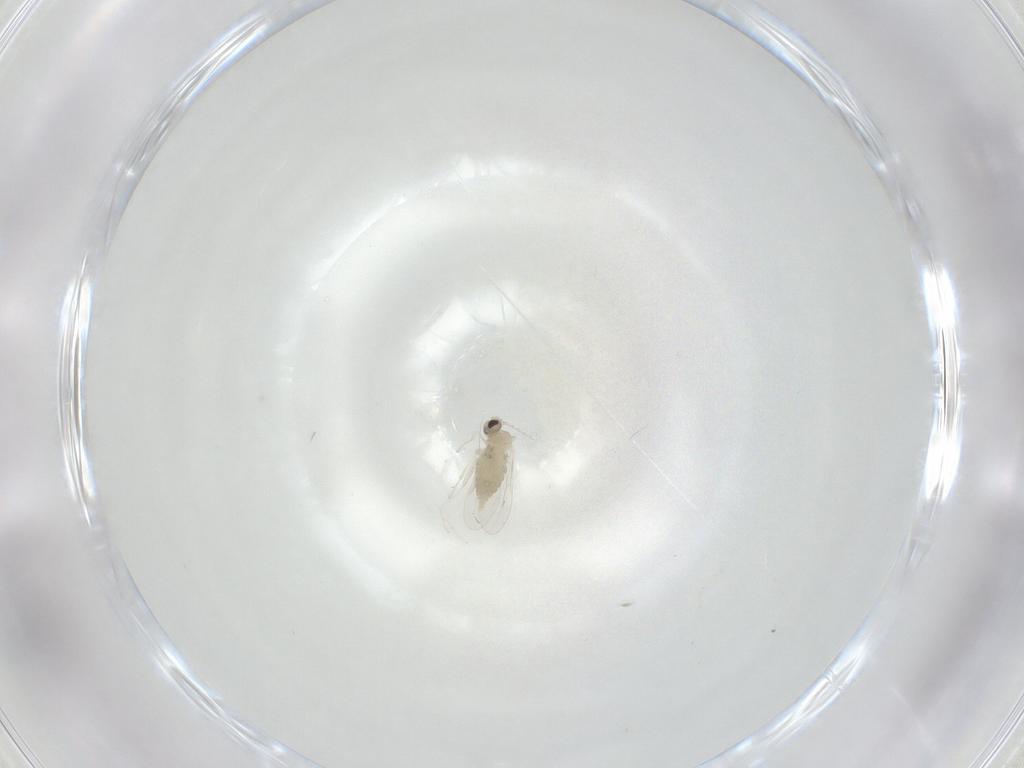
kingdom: Animalia
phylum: Arthropoda
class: Insecta
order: Diptera
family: Cecidomyiidae
